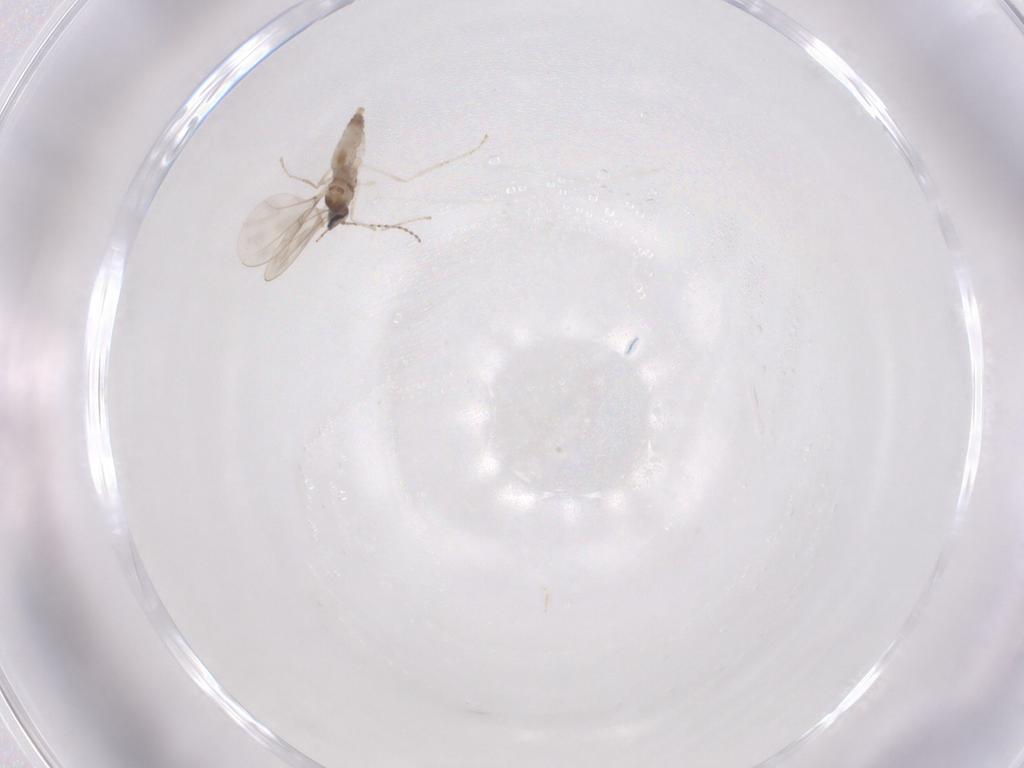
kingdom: Animalia
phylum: Arthropoda
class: Insecta
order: Diptera
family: Cecidomyiidae
